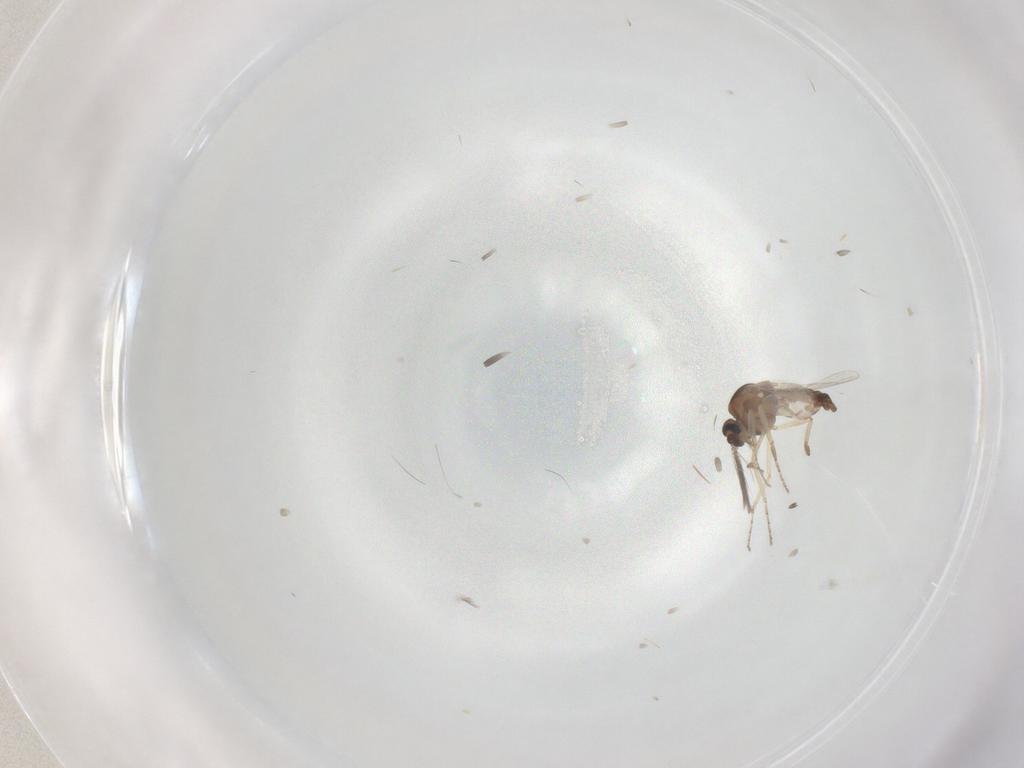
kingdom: Animalia
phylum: Arthropoda
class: Insecta
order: Diptera
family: Ceratopogonidae
